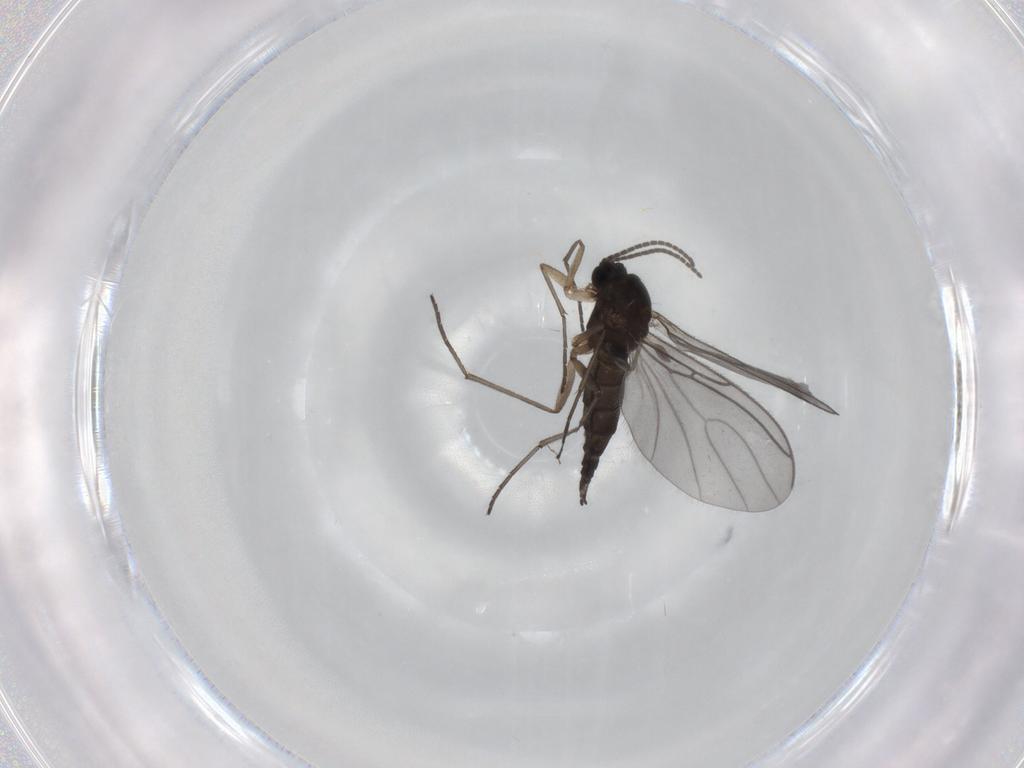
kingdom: Animalia
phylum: Arthropoda
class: Insecta
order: Diptera
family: Sciaridae
